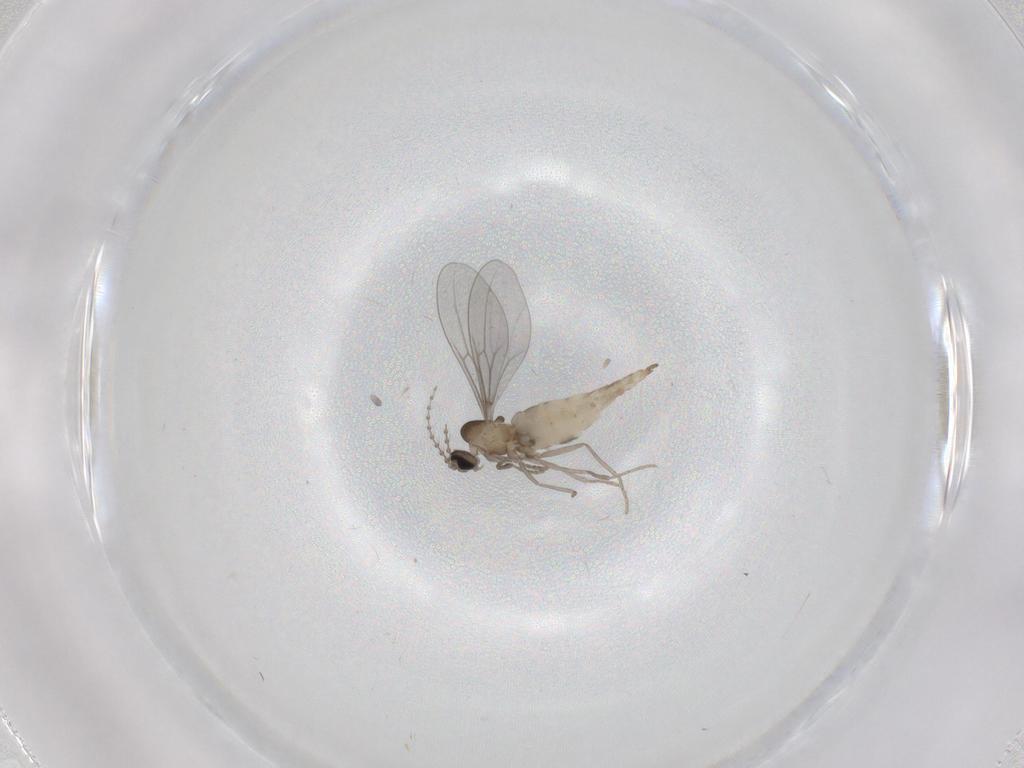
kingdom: Animalia
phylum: Arthropoda
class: Insecta
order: Diptera
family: Cecidomyiidae
